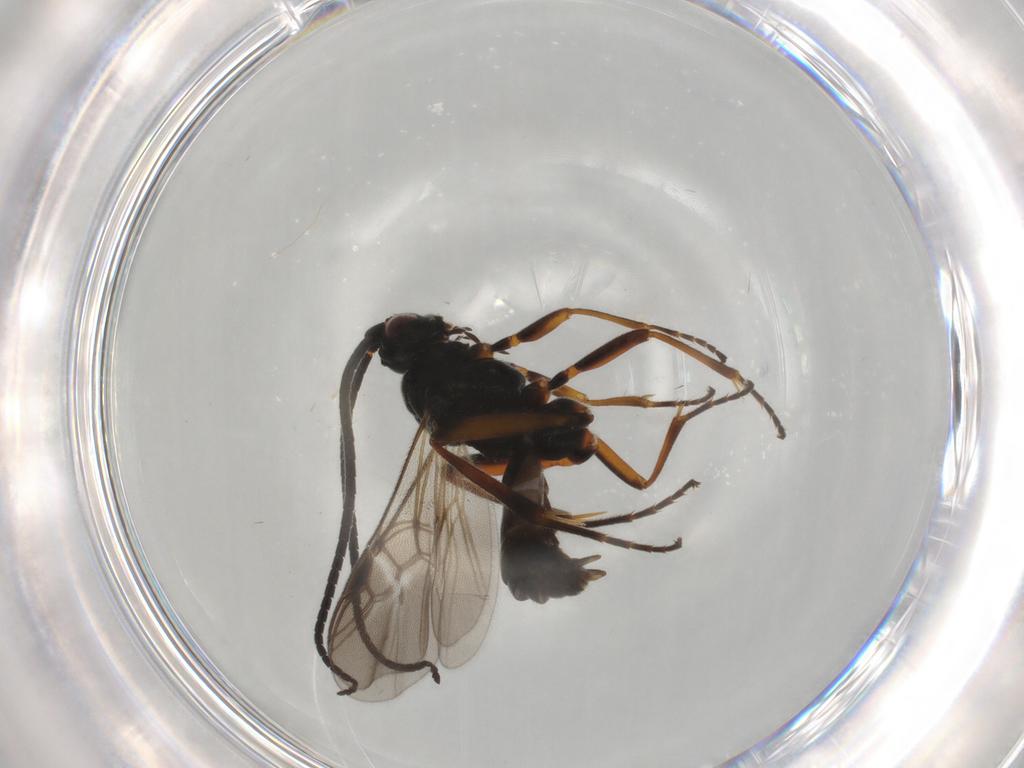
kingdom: Animalia
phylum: Arthropoda
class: Insecta
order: Hymenoptera
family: Braconidae
